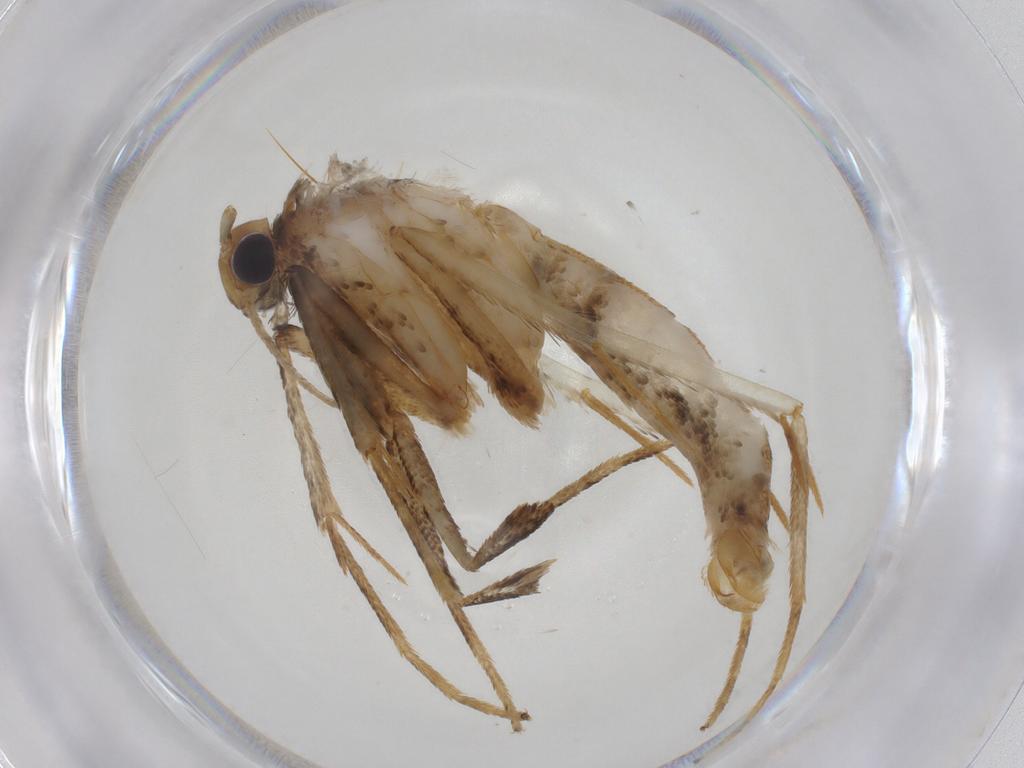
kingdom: Animalia
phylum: Arthropoda
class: Insecta
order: Lepidoptera
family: Erebidae
